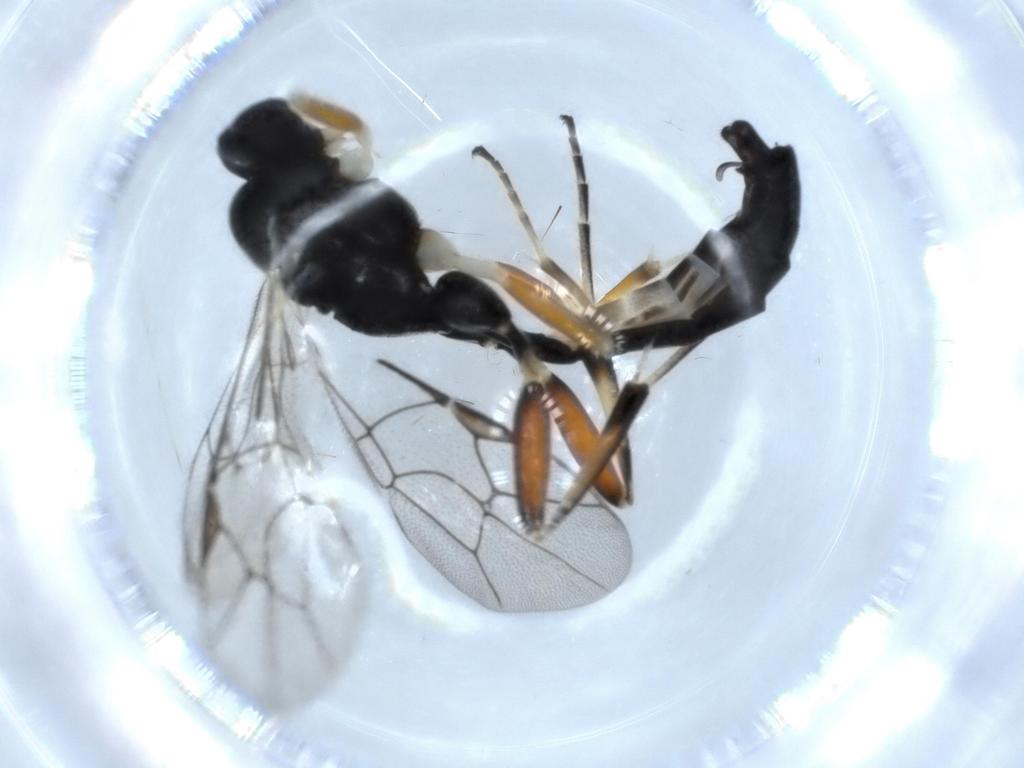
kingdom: Animalia
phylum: Arthropoda
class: Insecta
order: Hymenoptera
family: Ichneumonidae
